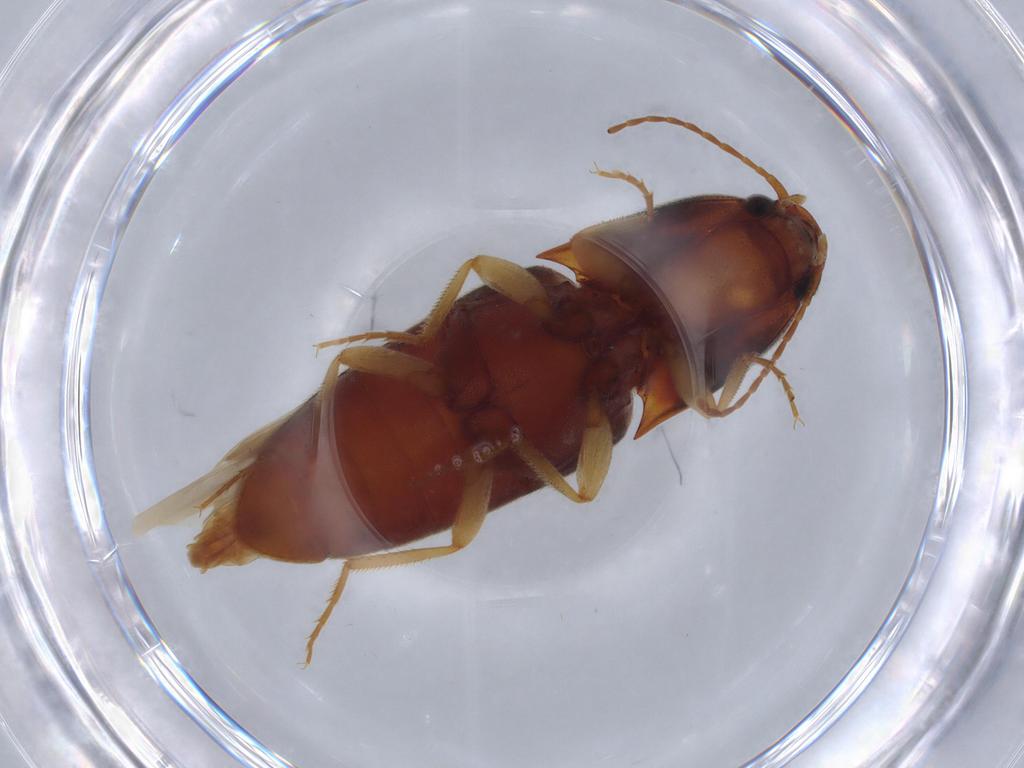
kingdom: Animalia
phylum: Arthropoda
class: Insecta
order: Coleoptera
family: Elateridae
